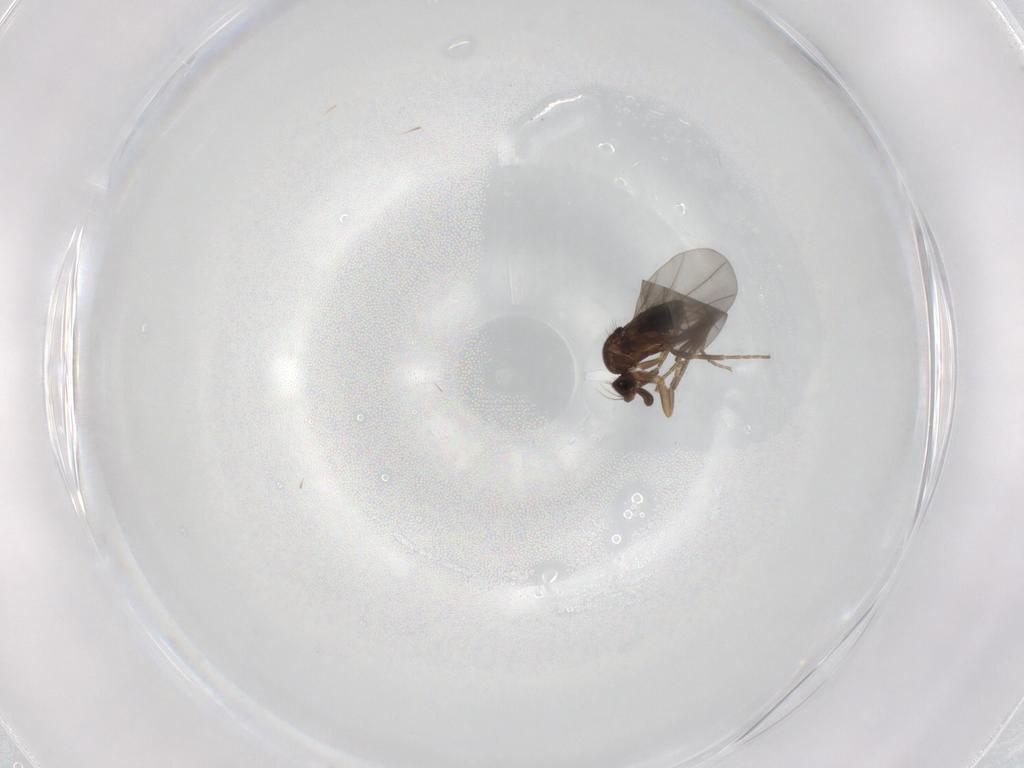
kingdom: Animalia
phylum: Arthropoda
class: Insecta
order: Diptera
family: Phoridae
